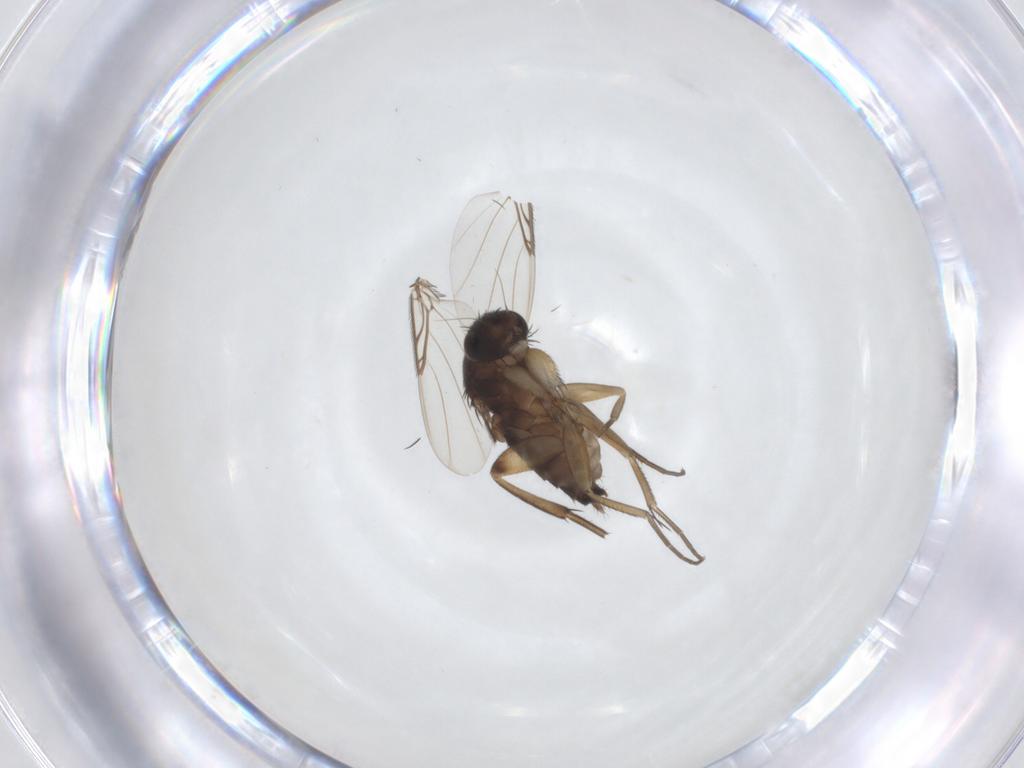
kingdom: Animalia
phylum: Arthropoda
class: Insecta
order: Diptera
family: Phoridae
